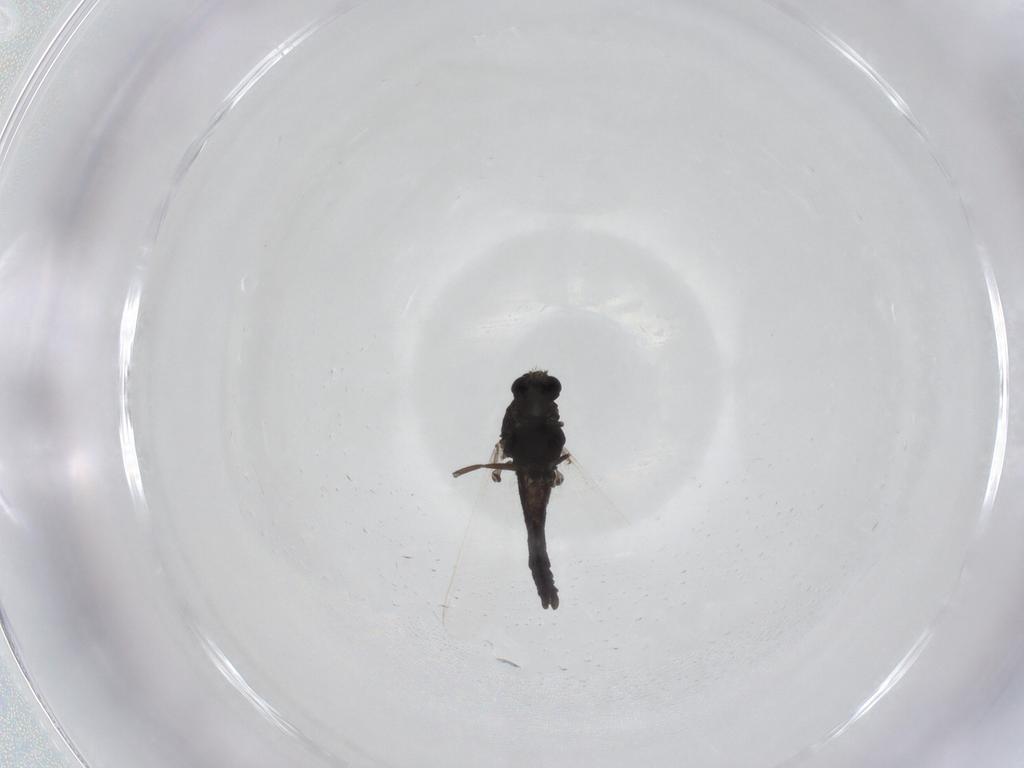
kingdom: Animalia
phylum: Arthropoda
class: Insecta
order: Diptera
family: Chironomidae
